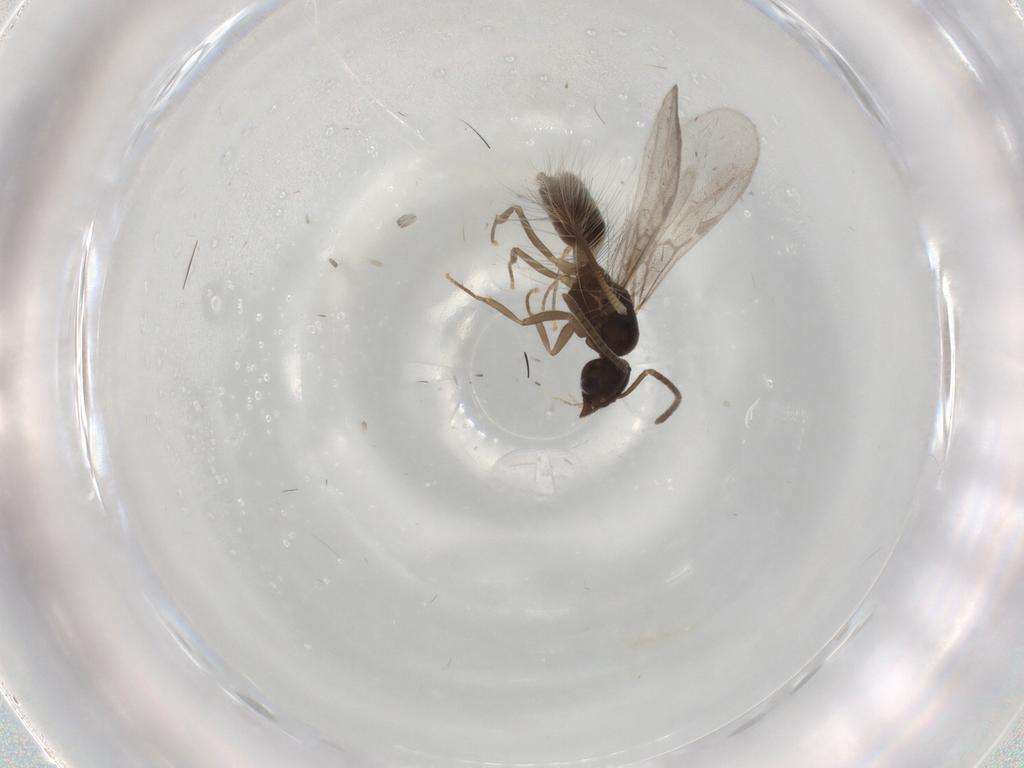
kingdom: Animalia
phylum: Arthropoda
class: Insecta
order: Hymenoptera
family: Formicidae
